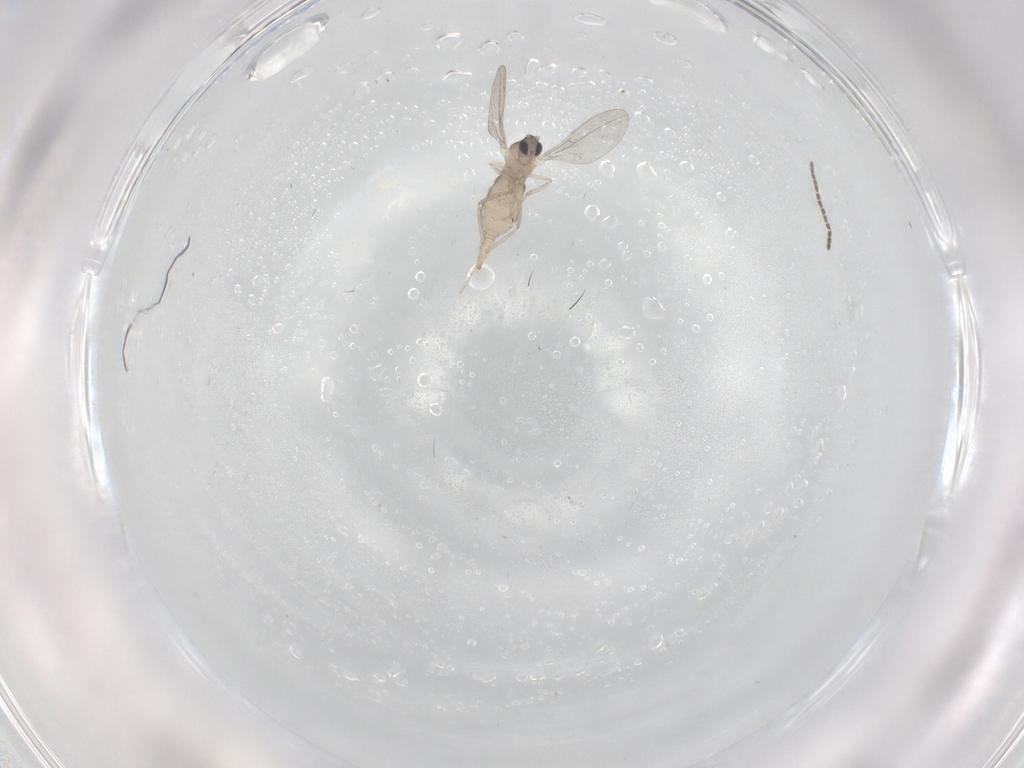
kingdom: Animalia
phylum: Arthropoda
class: Insecta
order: Diptera
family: Cecidomyiidae
